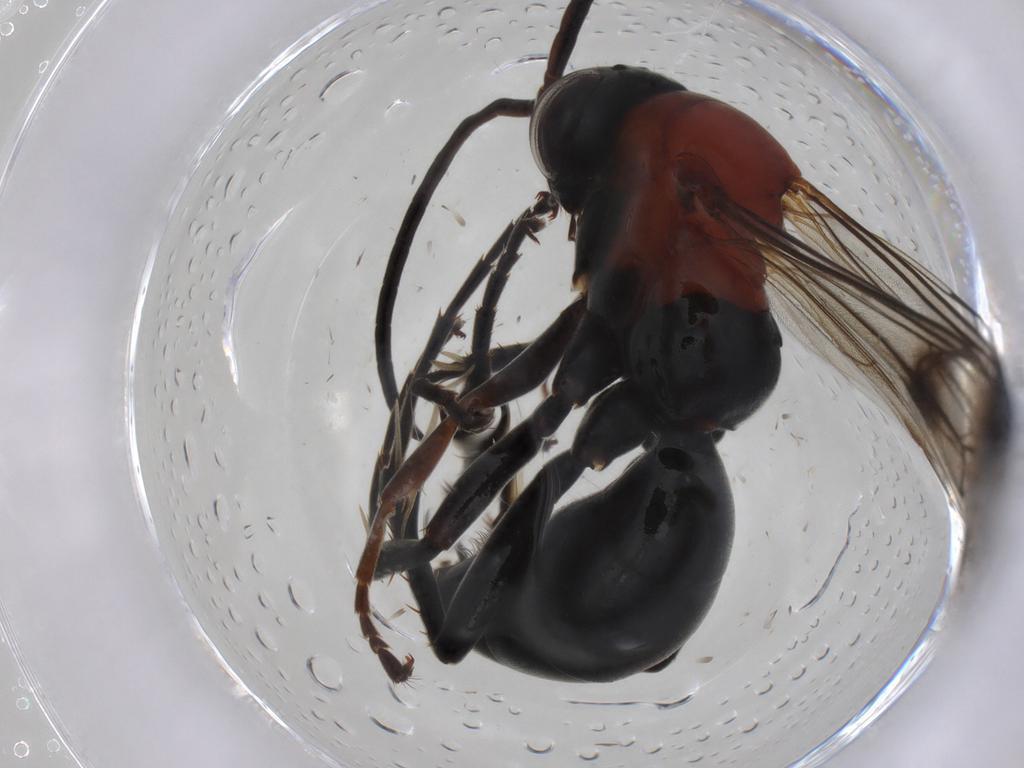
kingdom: Animalia
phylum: Arthropoda
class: Insecta
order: Hymenoptera
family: Pompilidae
